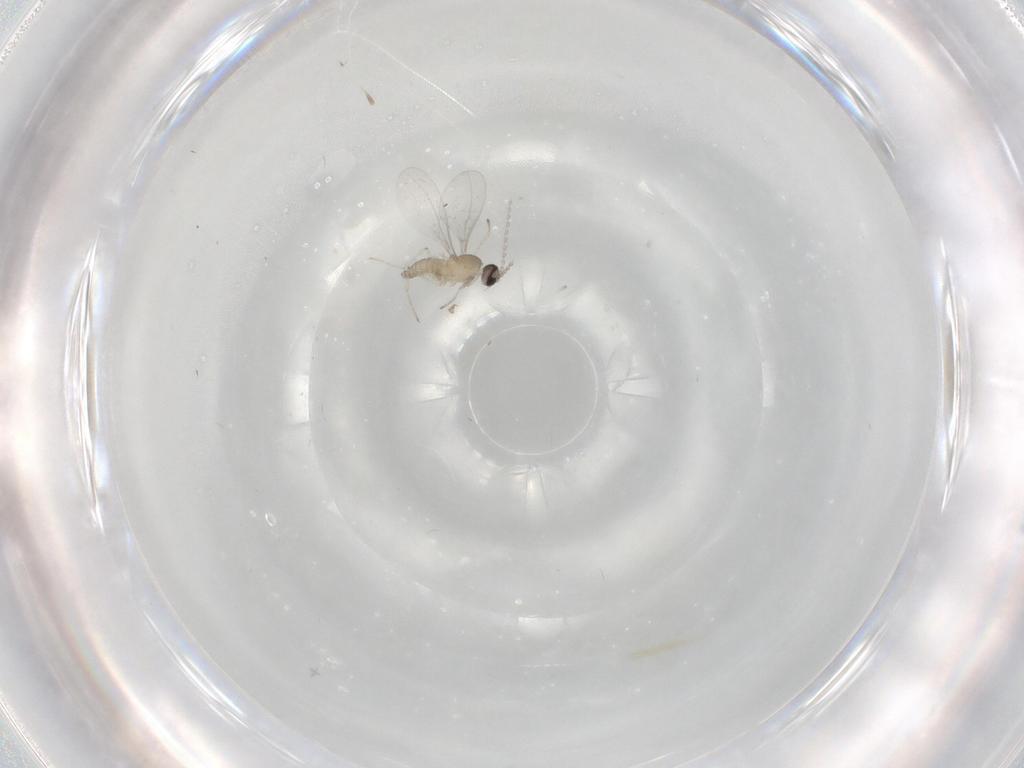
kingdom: Animalia
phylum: Arthropoda
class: Insecta
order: Diptera
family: Cecidomyiidae
